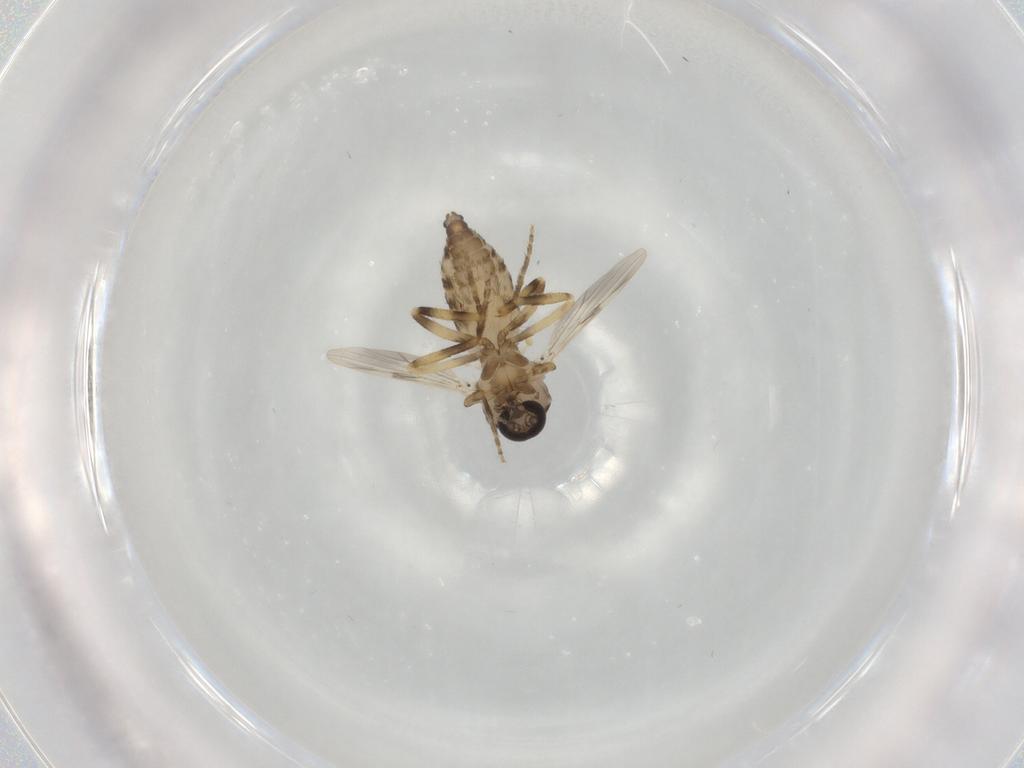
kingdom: Animalia
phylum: Arthropoda
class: Insecta
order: Diptera
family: Ceratopogonidae
